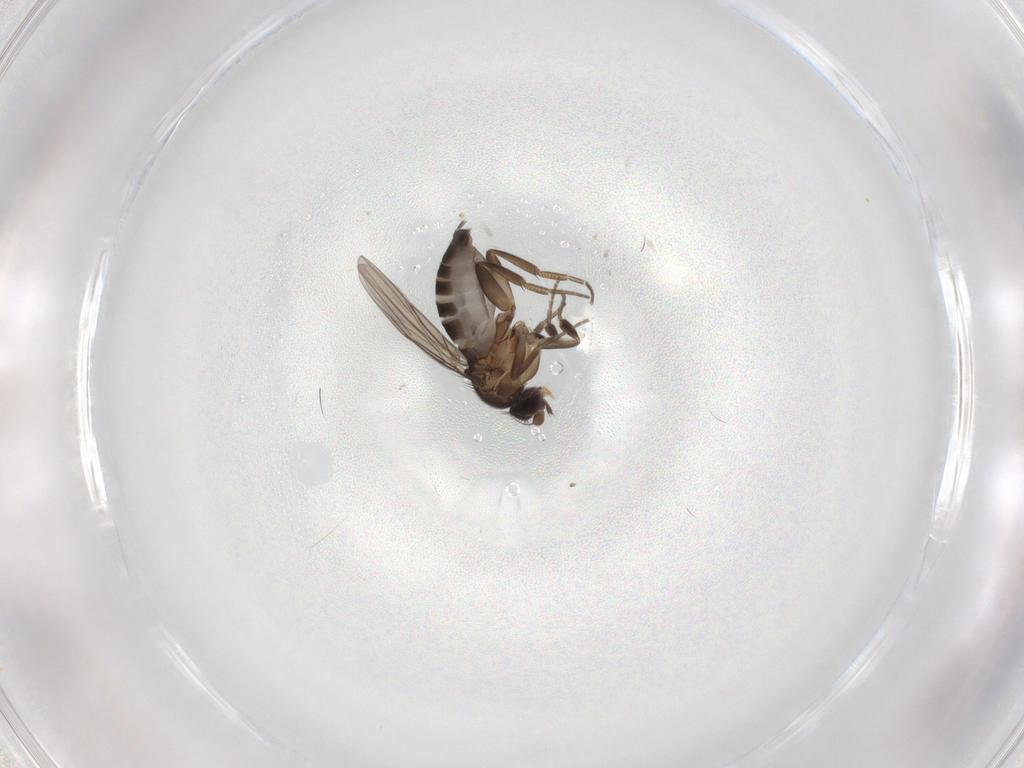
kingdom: Animalia
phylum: Arthropoda
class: Insecta
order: Diptera
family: Phoridae
